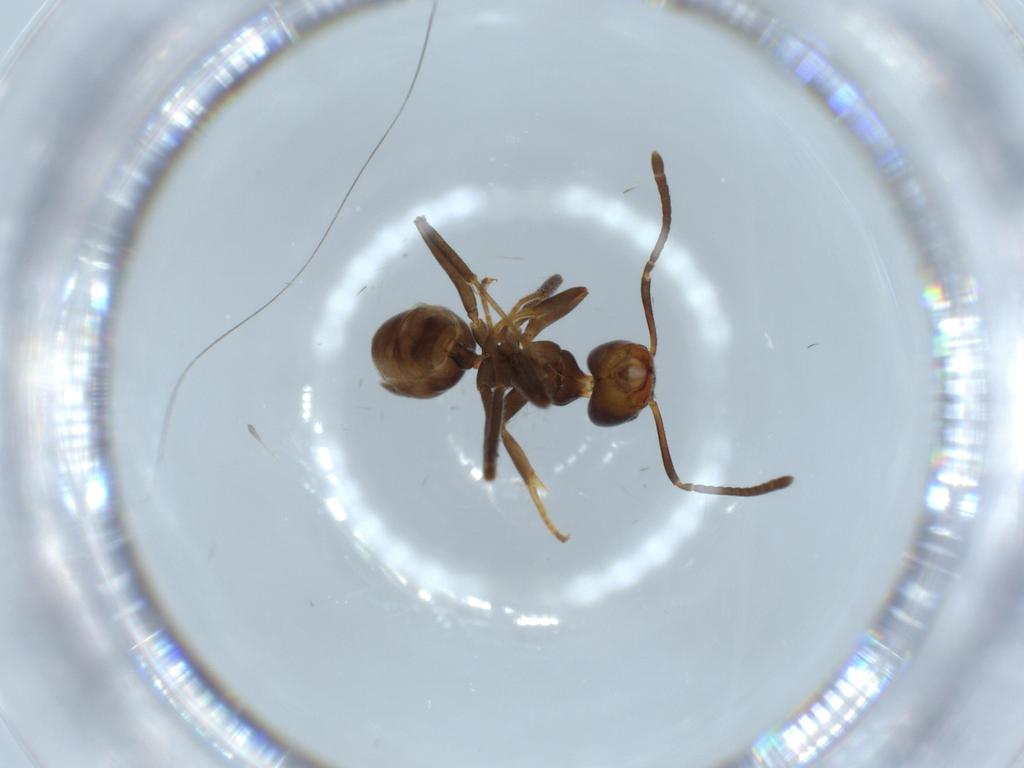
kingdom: Animalia
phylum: Arthropoda
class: Insecta
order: Hymenoptera
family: Formicidae
